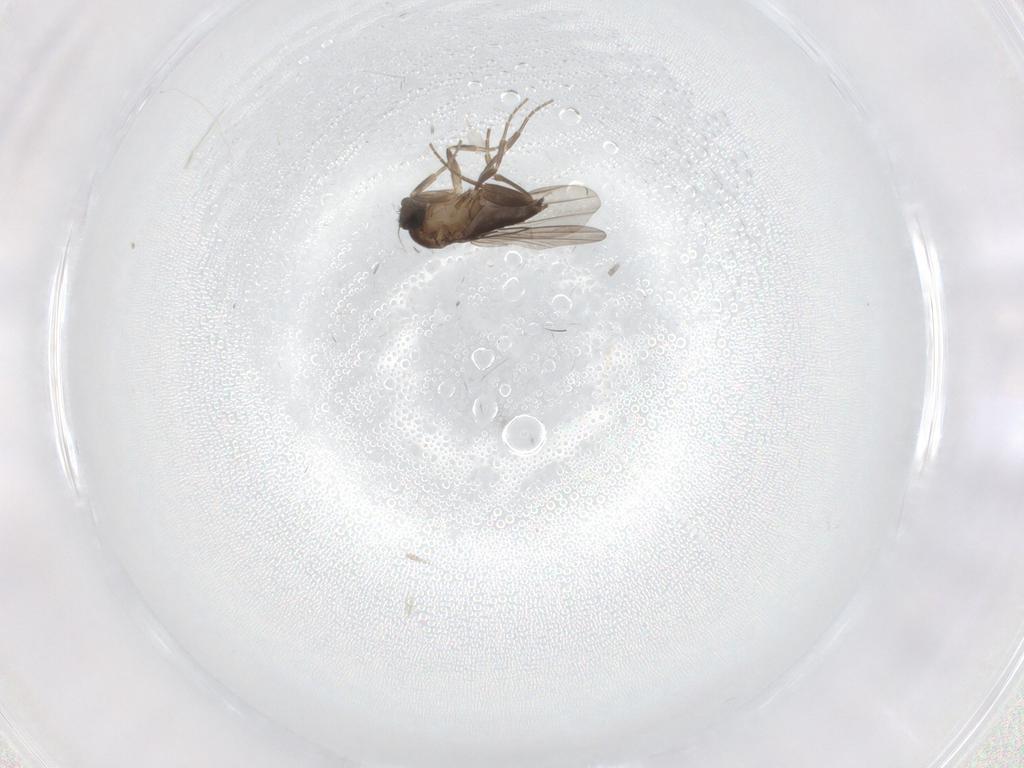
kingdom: Animalia
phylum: Arthropoda
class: Insecta
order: Diptera
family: Phoridae
